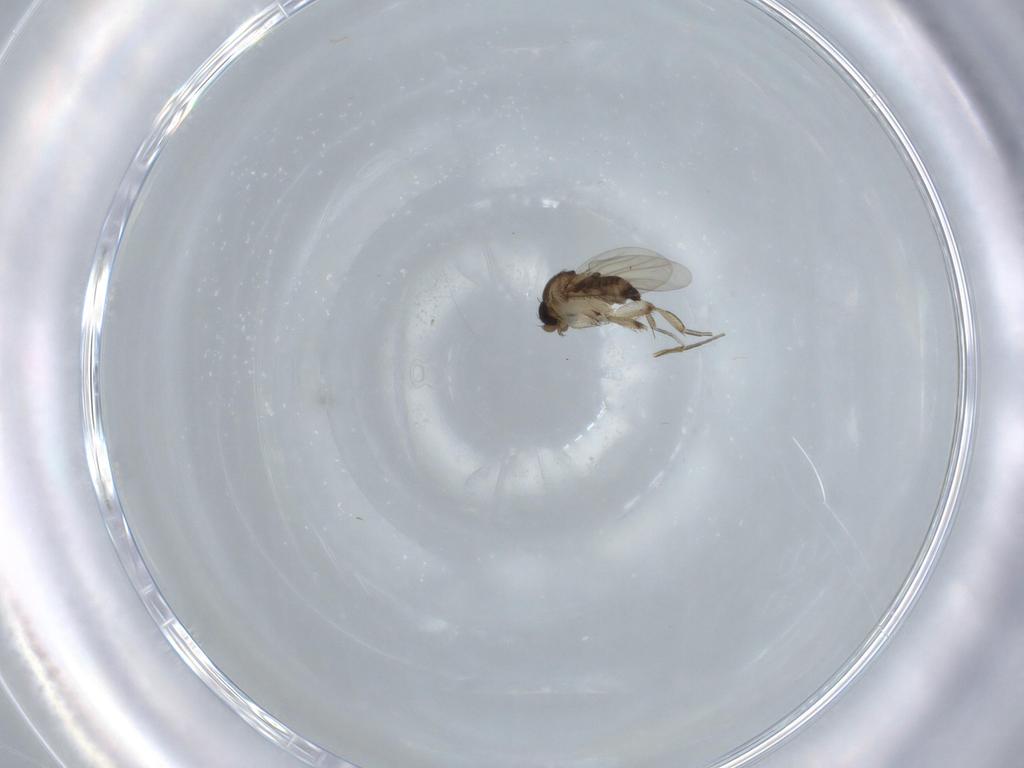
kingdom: Animalia
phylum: Arthropoda
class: Insecta
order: Diptera
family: Phoridae
